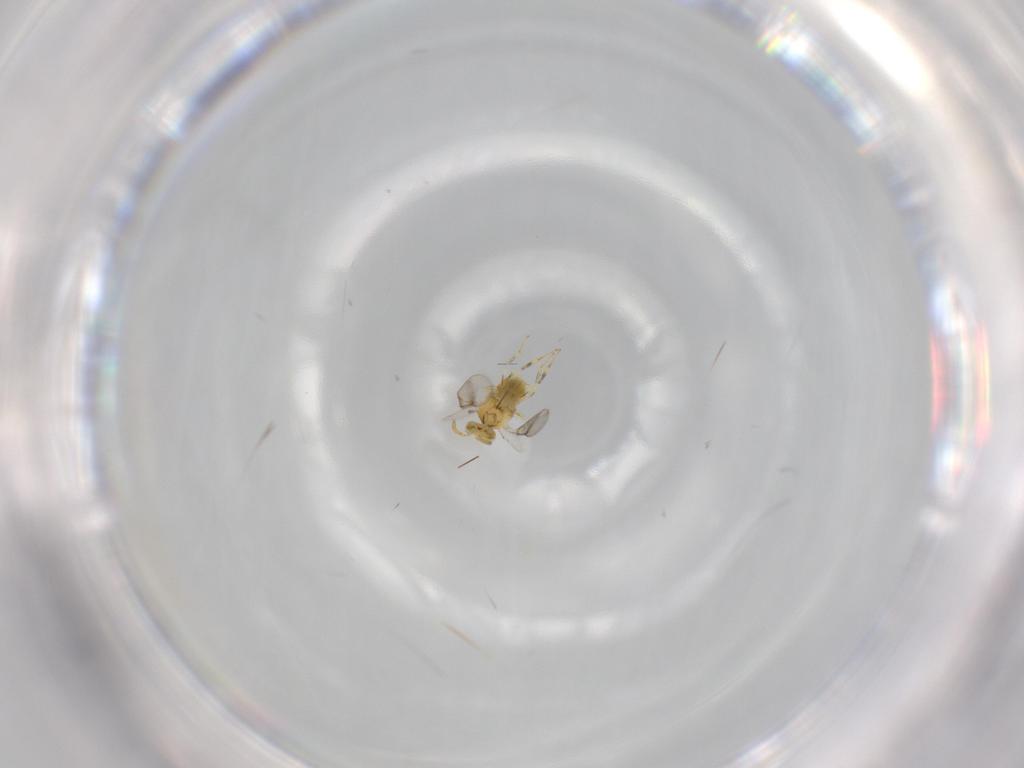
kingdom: Animalia
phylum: Arthropoda
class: Insecta
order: Hymenoptera
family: Aphelinidae
